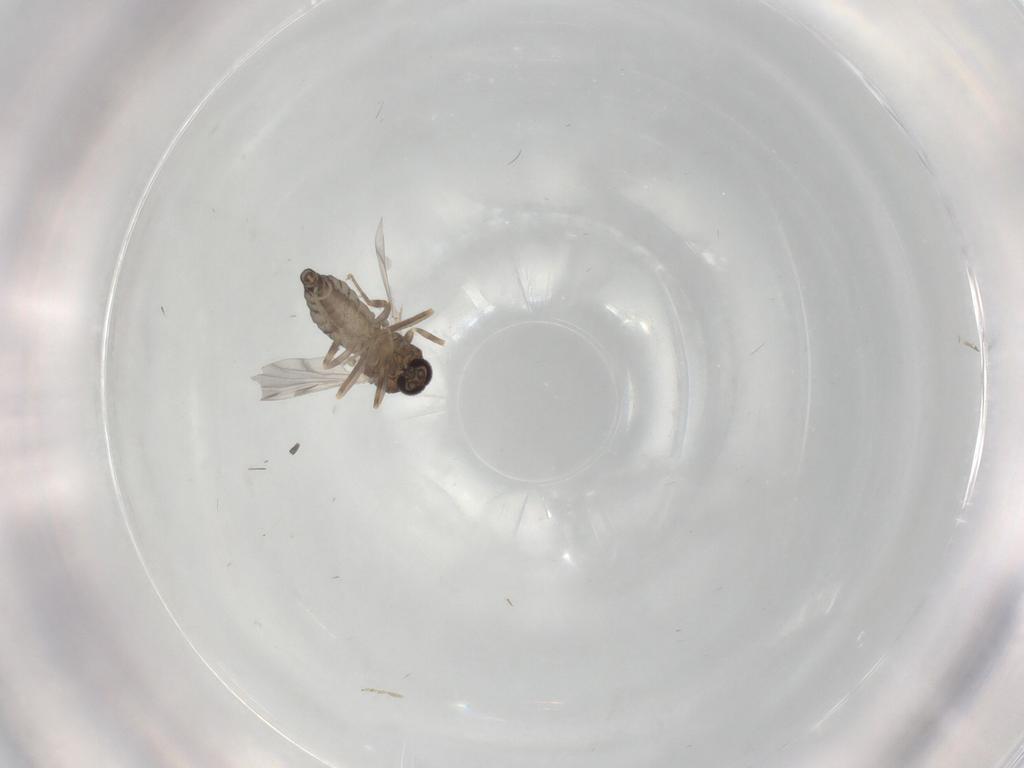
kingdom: Animalia
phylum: Arthropoda
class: Insecta
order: Diptera
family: Ceratopogonidae
